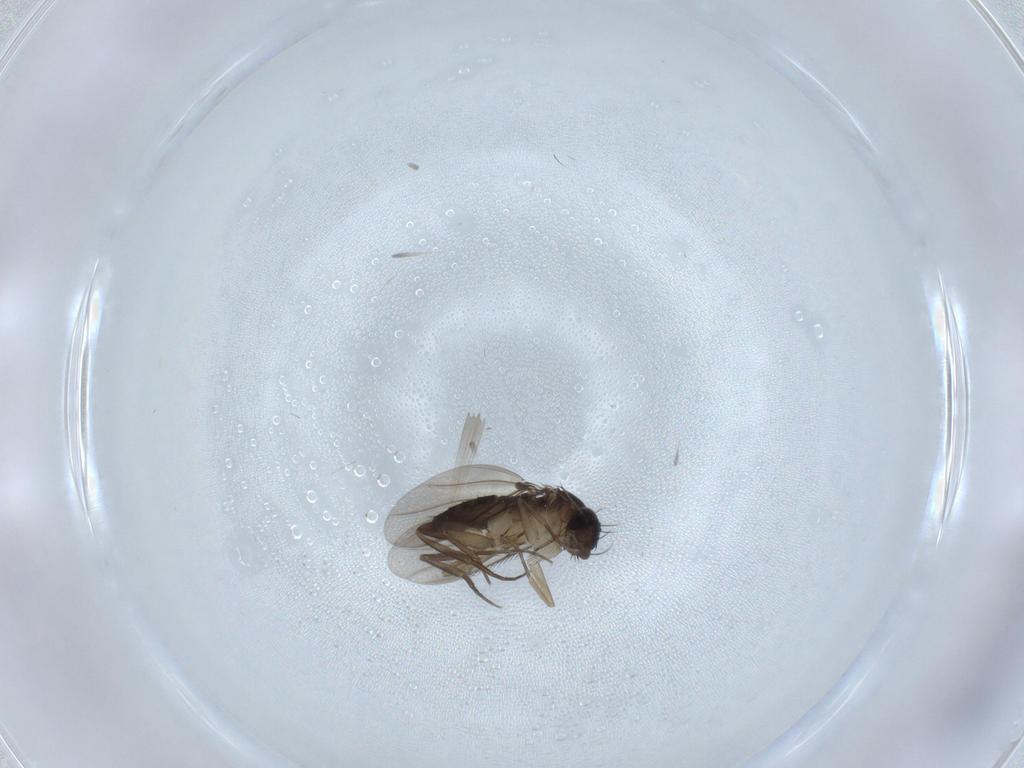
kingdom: Animalia
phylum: Arthropoda
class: Insecta
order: Diptera
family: Phoridae
